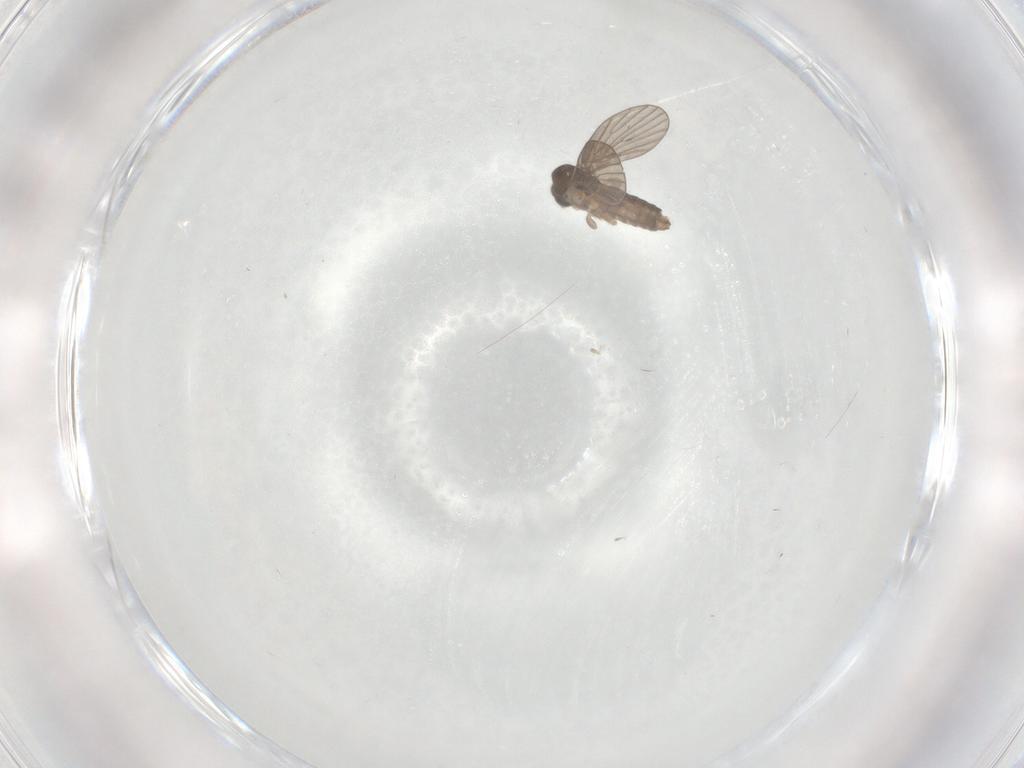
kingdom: Animalia
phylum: Arthropoda
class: Insecta
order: Diptera
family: Psychodidae
